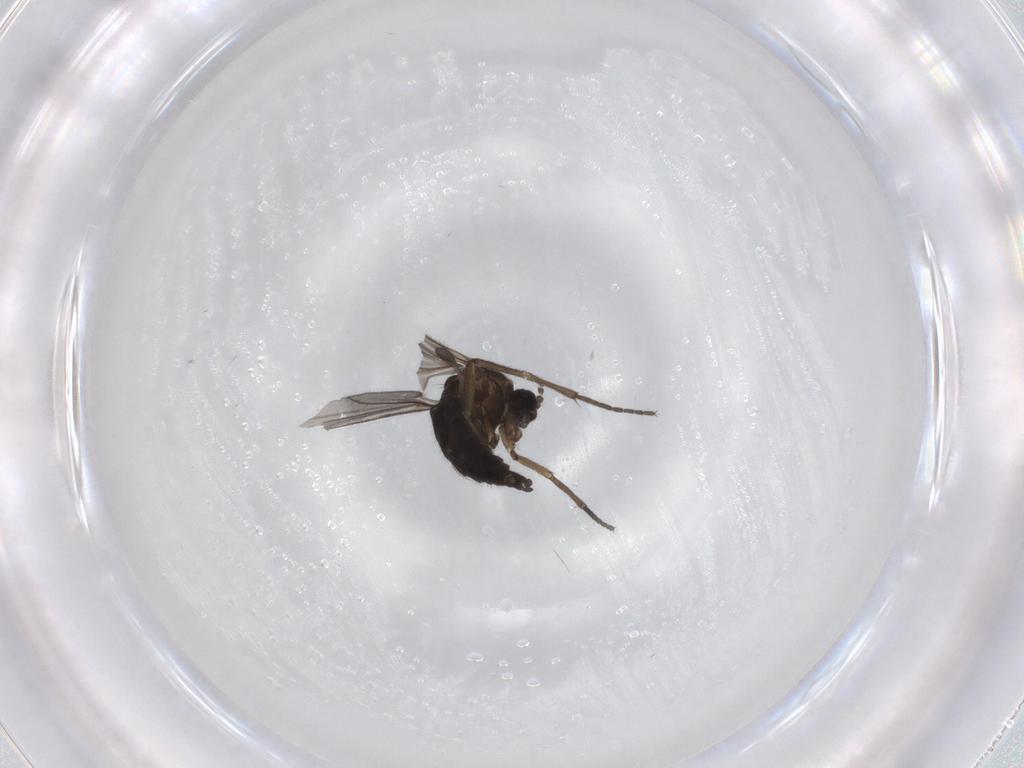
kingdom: Animalia
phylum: Arthropoda
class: Insecta
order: Diptera
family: Sciaridae
